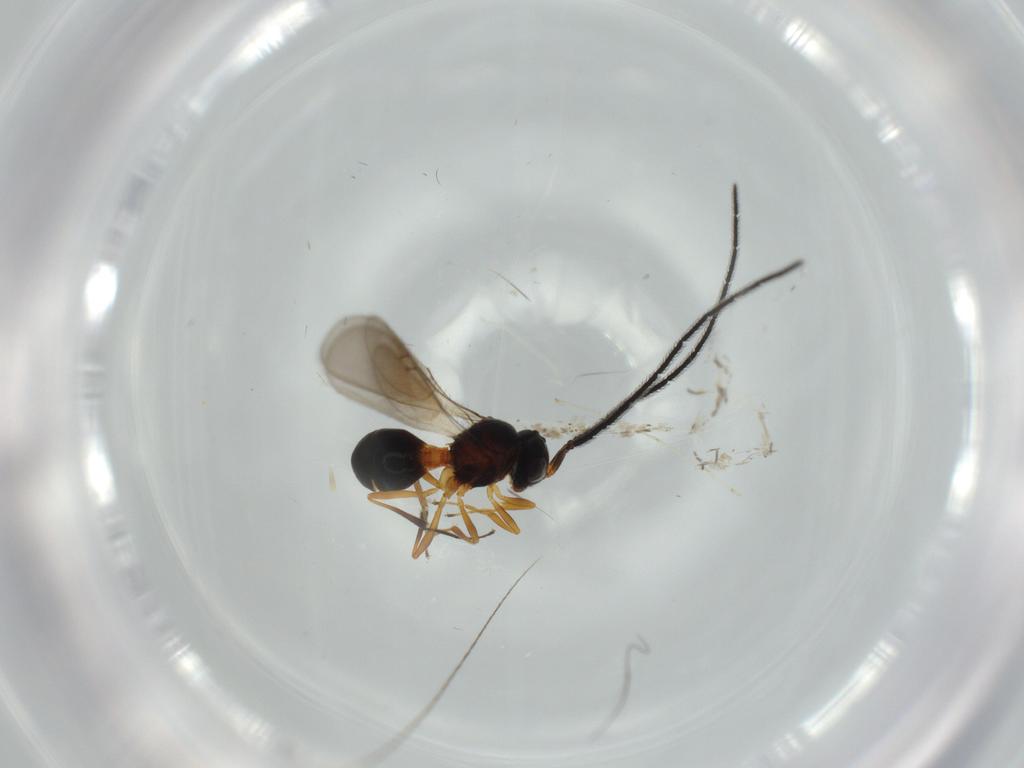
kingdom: Animalia
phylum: Arthropoda
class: Insecta
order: Hymenoptera
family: Scelionidae
